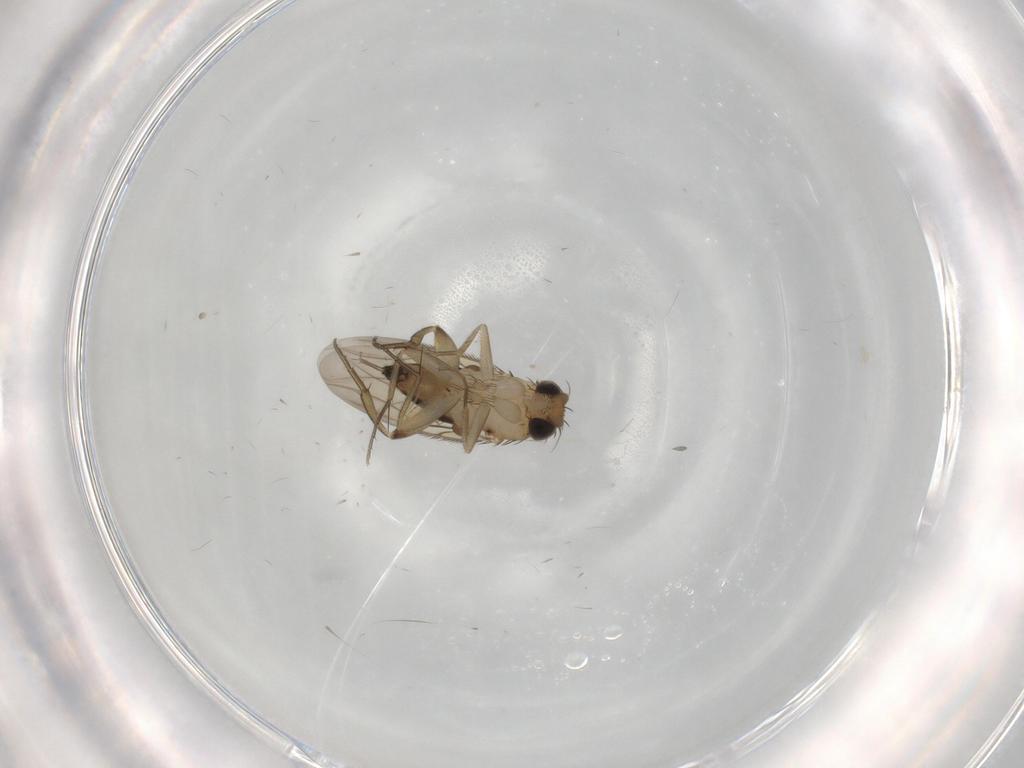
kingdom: Animalia
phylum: Arthropoda
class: Insecta
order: Diptera
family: Phoridae
